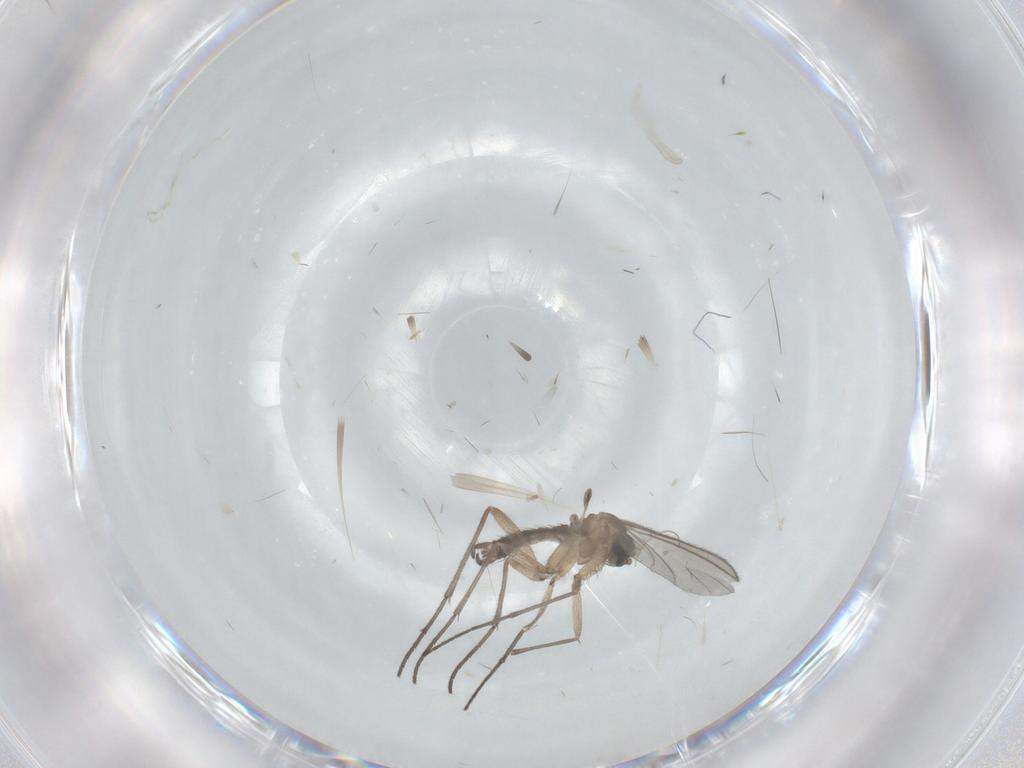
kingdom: Animalia
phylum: Arthropoda
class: Insecta
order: Diptera
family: Sciaridae
